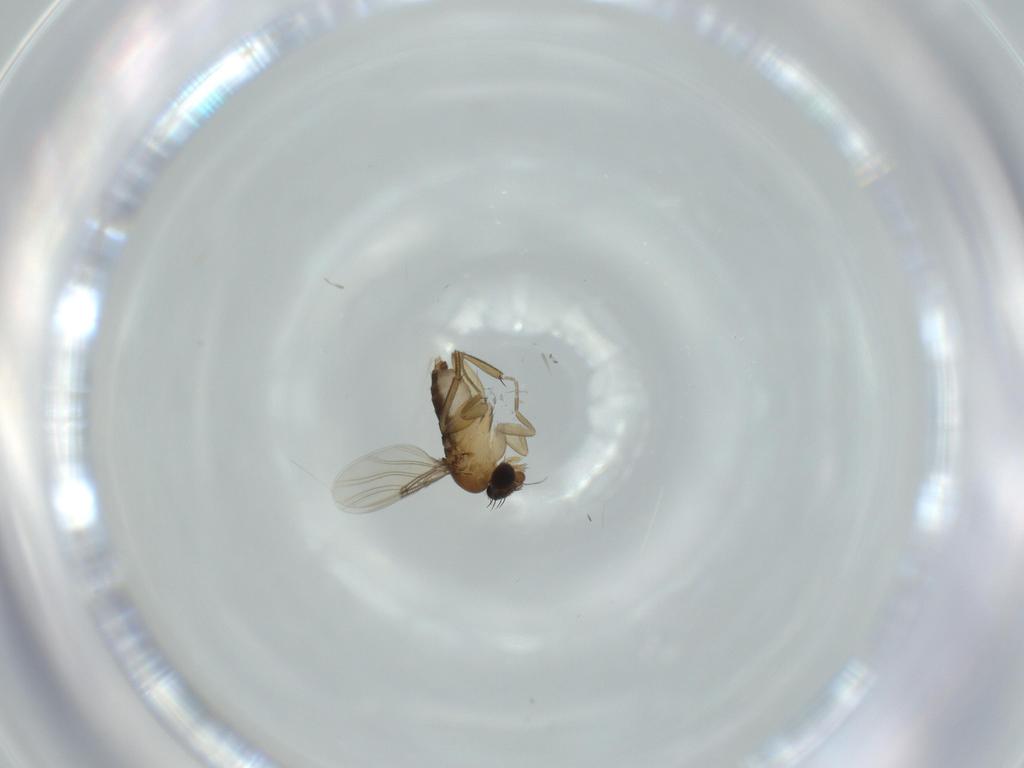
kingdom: Animalia
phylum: Arthropoda
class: Insecta
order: Diptera
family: Phoridae
